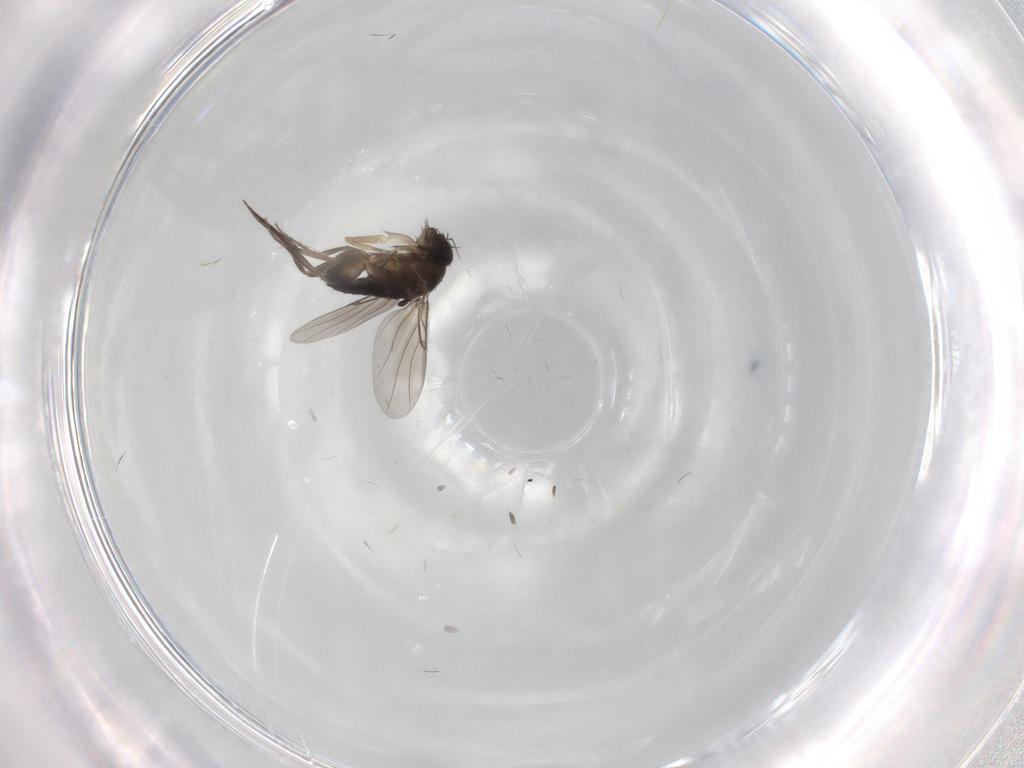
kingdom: Animalia
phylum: Arthropoda
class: Insecta
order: Diptera
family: Phoridae
